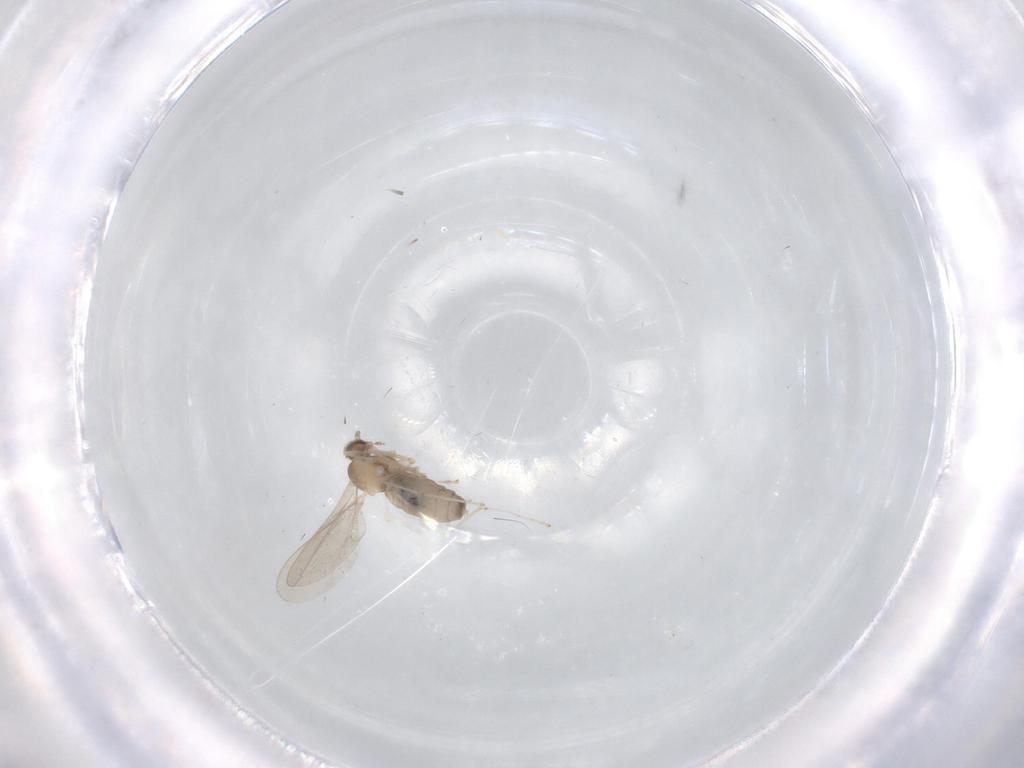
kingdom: Animalia
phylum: Arthropoda
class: Insecta
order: Diptera
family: Cecidomyiidae
